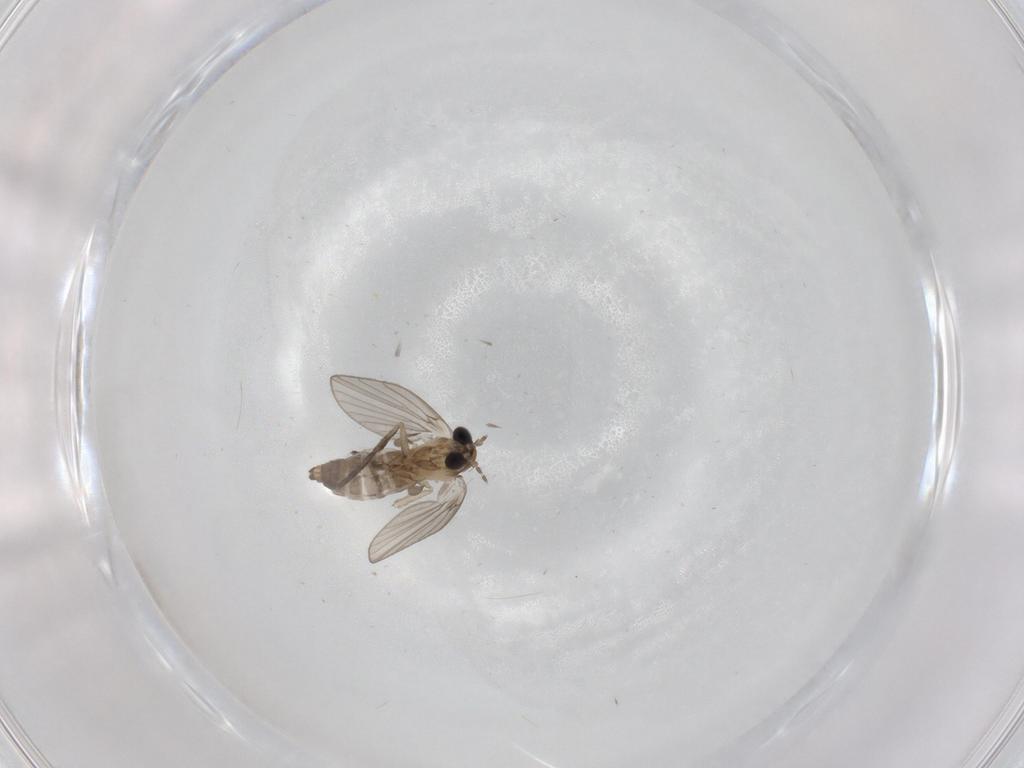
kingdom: Animalia
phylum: Arthropoda
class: Insecta
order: Diptera
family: Psychodidae
